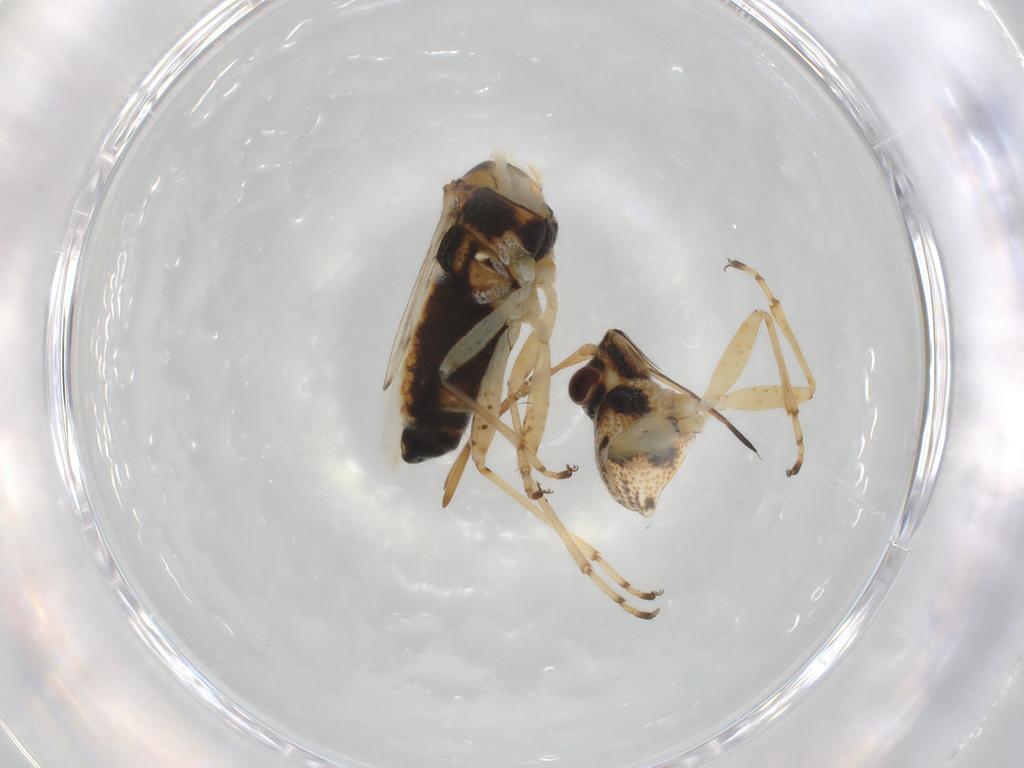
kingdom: Animalia
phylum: Arthropoda
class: Insecta
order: Hemiptera
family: Lygaeidae
